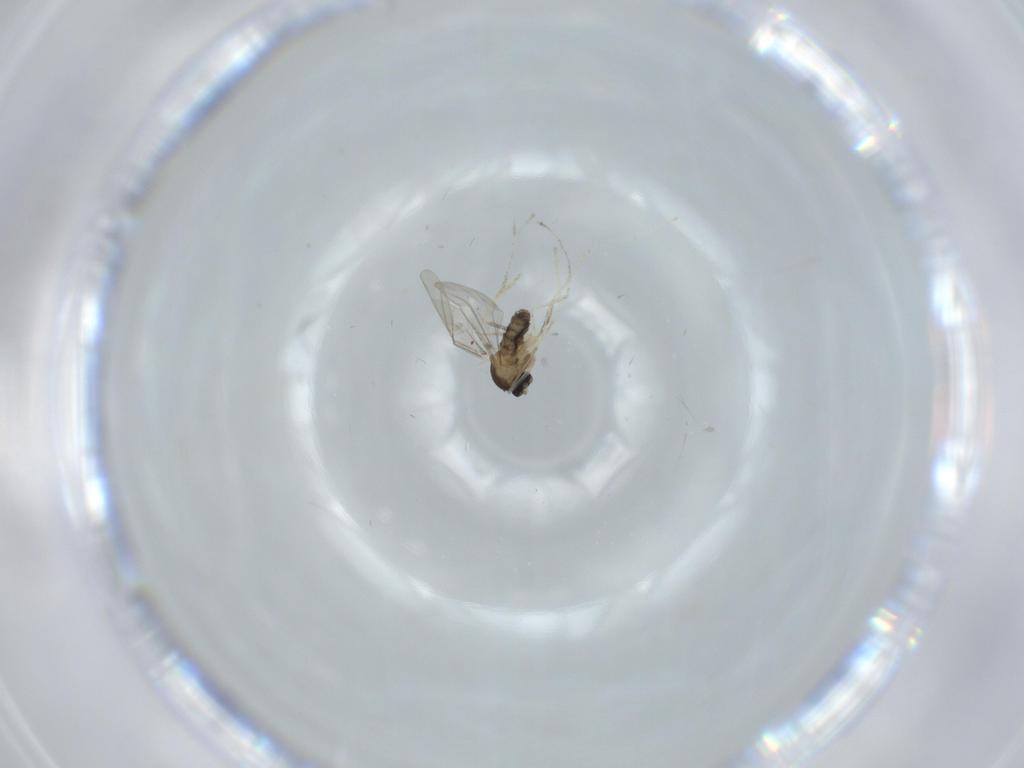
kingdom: Animalia
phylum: Arthropoda
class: Insecta
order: Diptera
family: Cecidomyiidae
